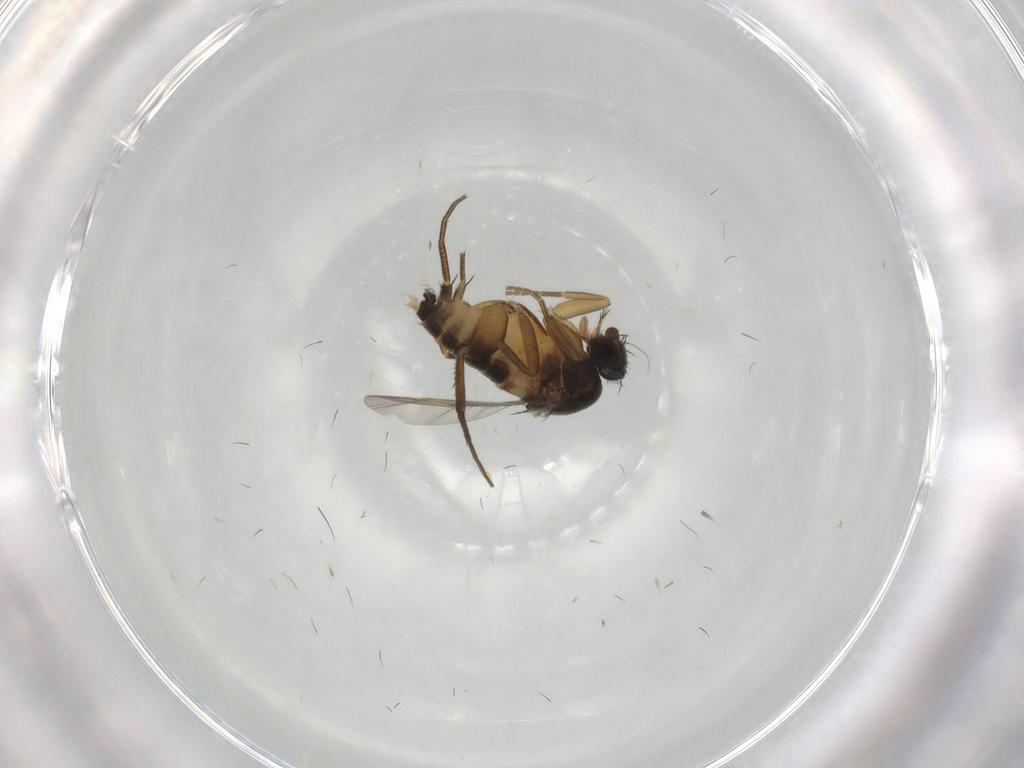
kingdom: Animalia
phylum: Arthropoda
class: Insecta
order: Diptera
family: Phoridae
